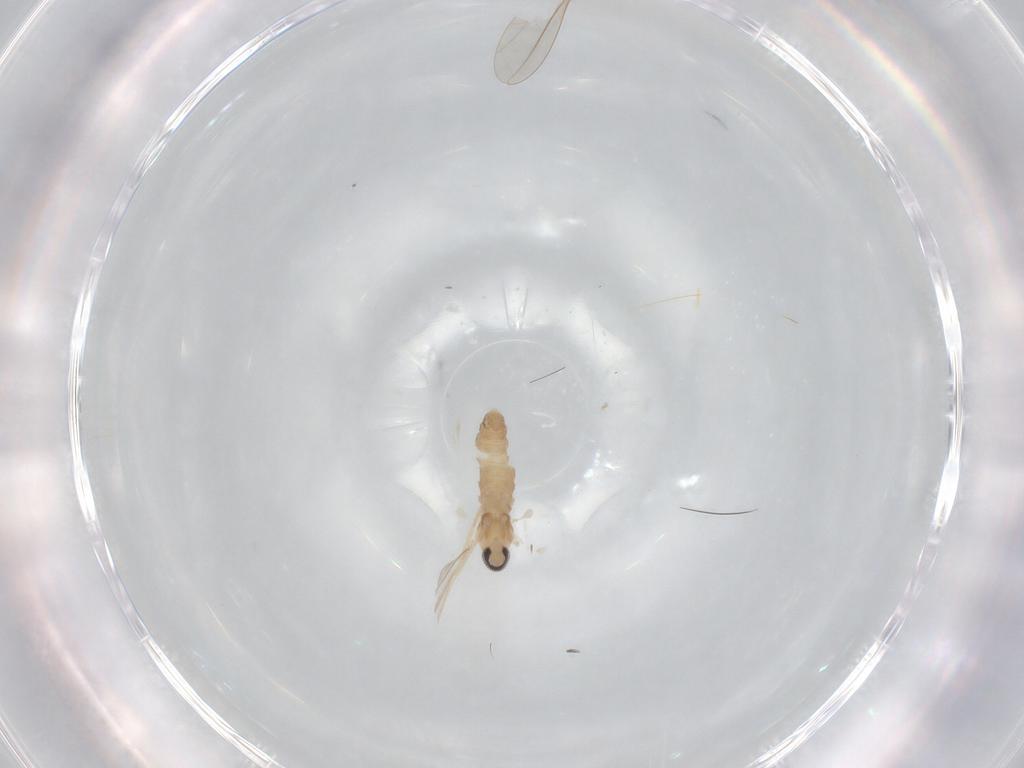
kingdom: Animalia
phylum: Arthropoda
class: Insecta
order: Diptera
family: Cecidomyiidae
